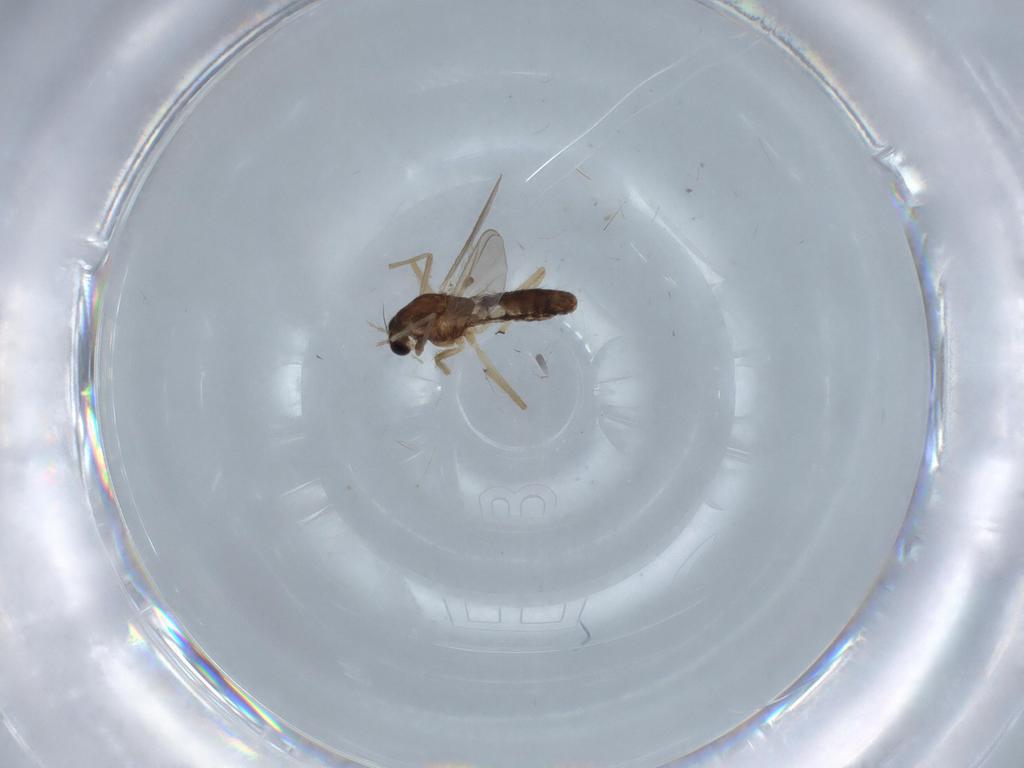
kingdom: Animalia
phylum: Arthropoda
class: Insecta
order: Diptera
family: Chironomidae
